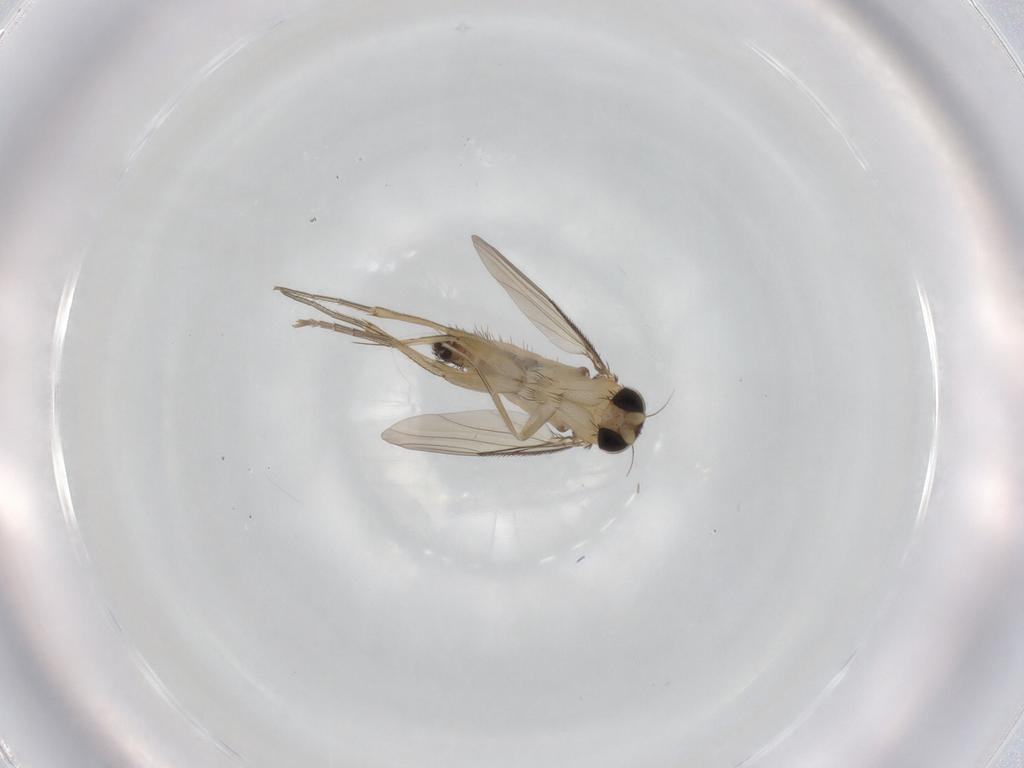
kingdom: Animalia
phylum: Arthropoda
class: Insecta
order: Diptera
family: Phoridae
